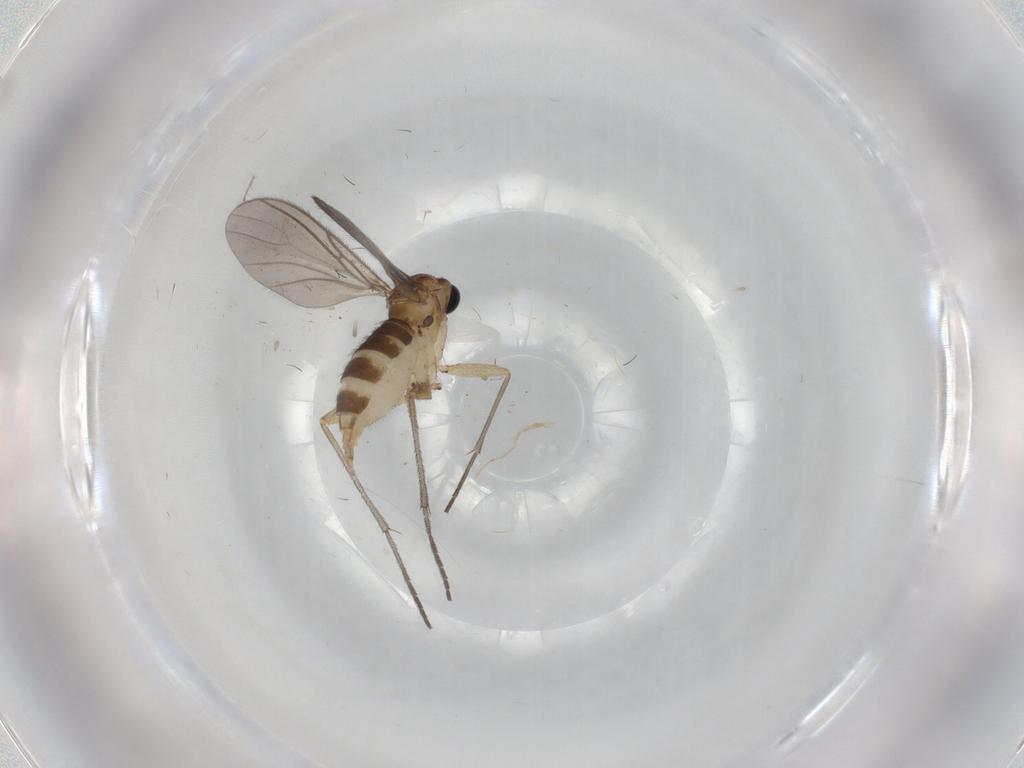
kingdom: Animalia
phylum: Arthropoda
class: Insecta
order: Diptera
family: Sciaridae
